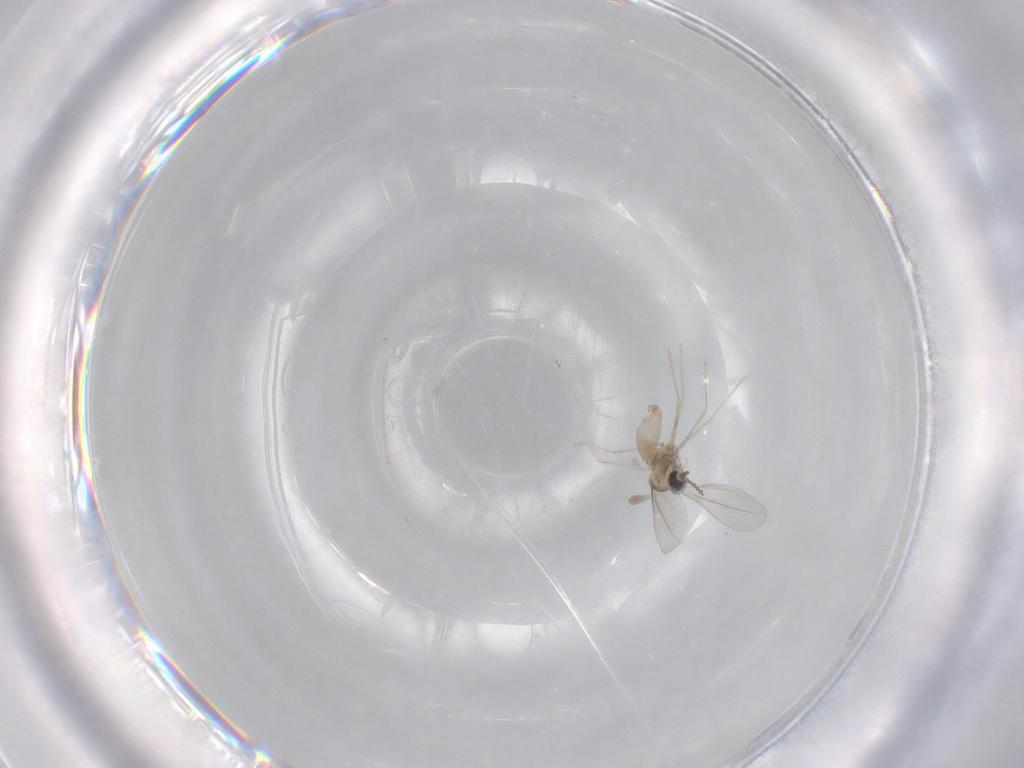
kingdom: Animalia
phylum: Arthropoda
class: Insecta
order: Diptera
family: Cecidomyiidae
